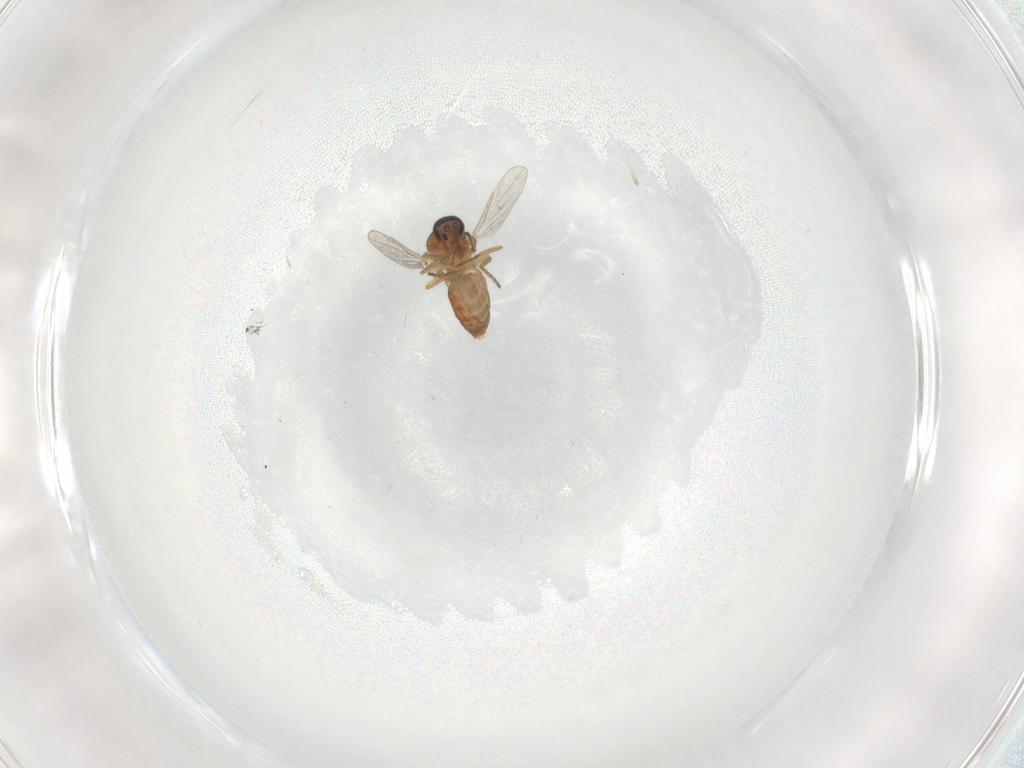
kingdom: Animalia
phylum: Arthropoda
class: Insecta
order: Diptera
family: Ceratopogonidae
